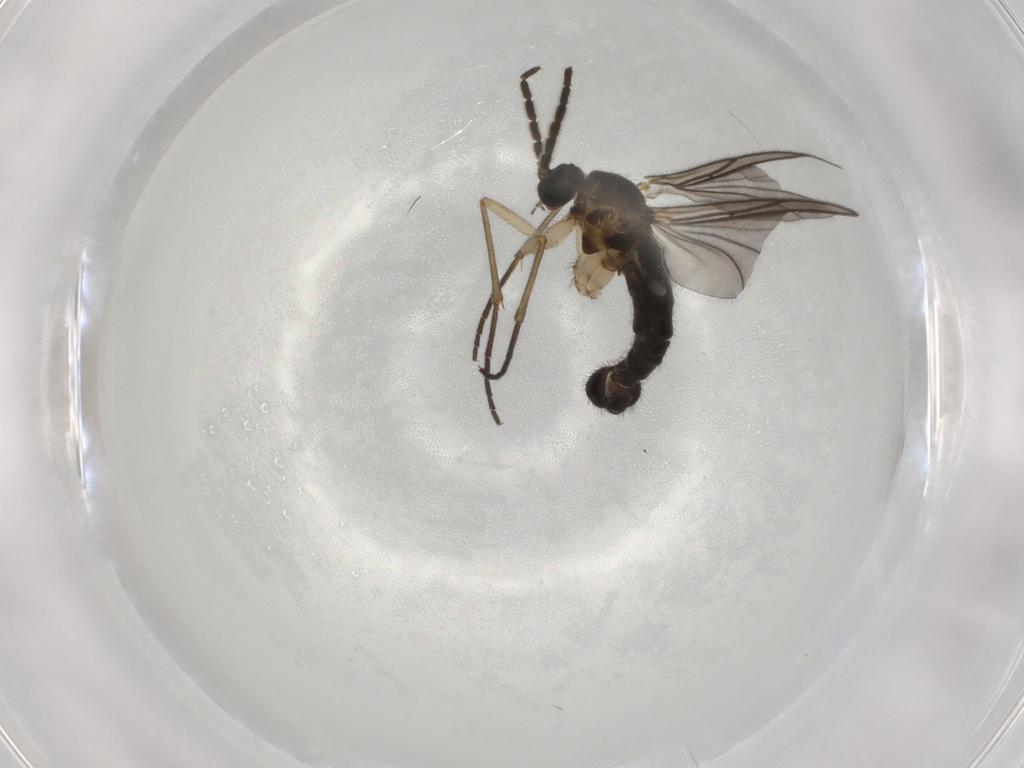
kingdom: Animalia
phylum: Arthropoda
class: Insecta
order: Diptera
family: Sciaridae
